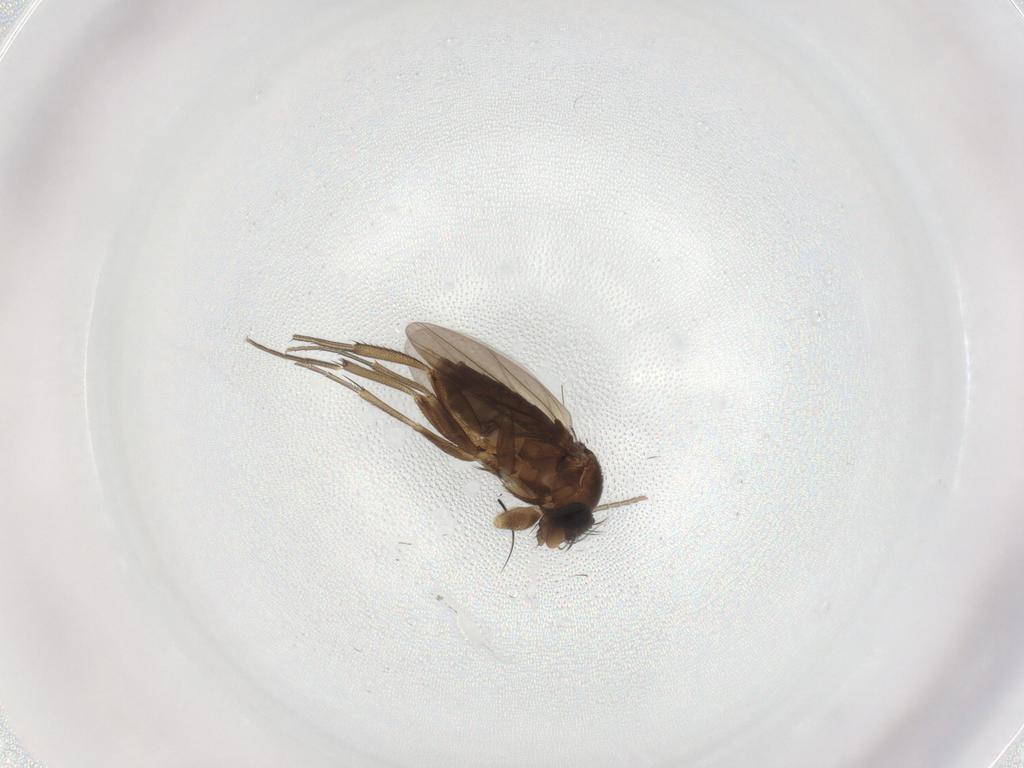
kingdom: Animalia
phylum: Arthropoda
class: Insecta
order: Diptera
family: Phoridae
